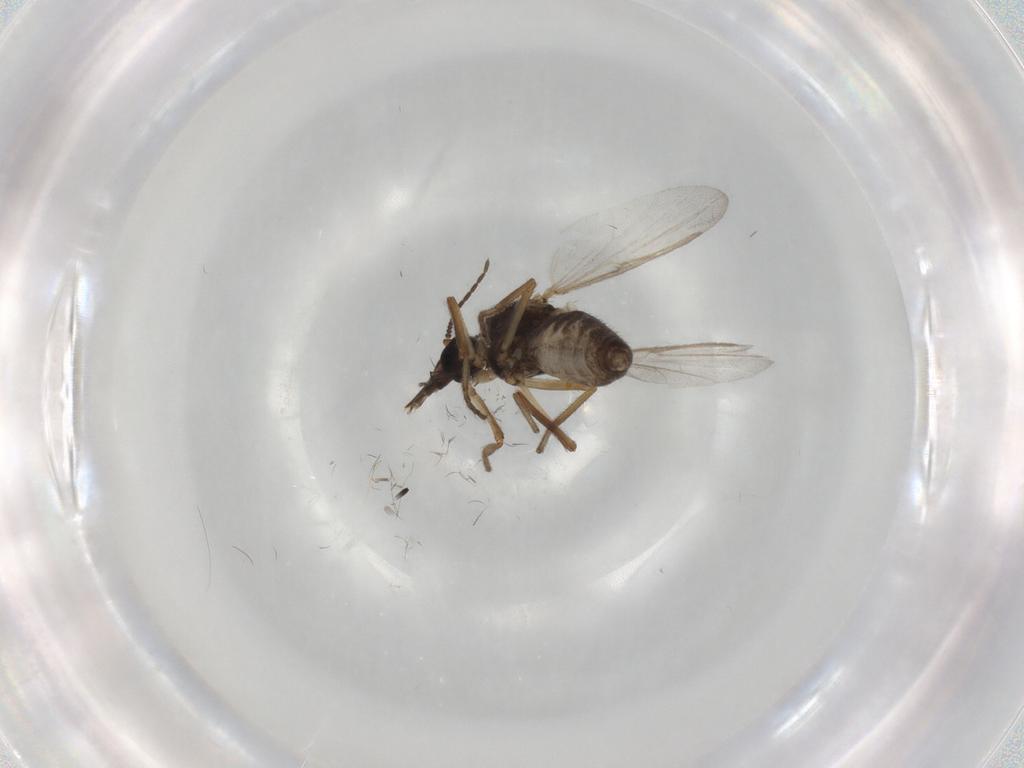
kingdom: Animalia
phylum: Arthropoda
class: Insecta
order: Diptera
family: Ceratopogonidae
